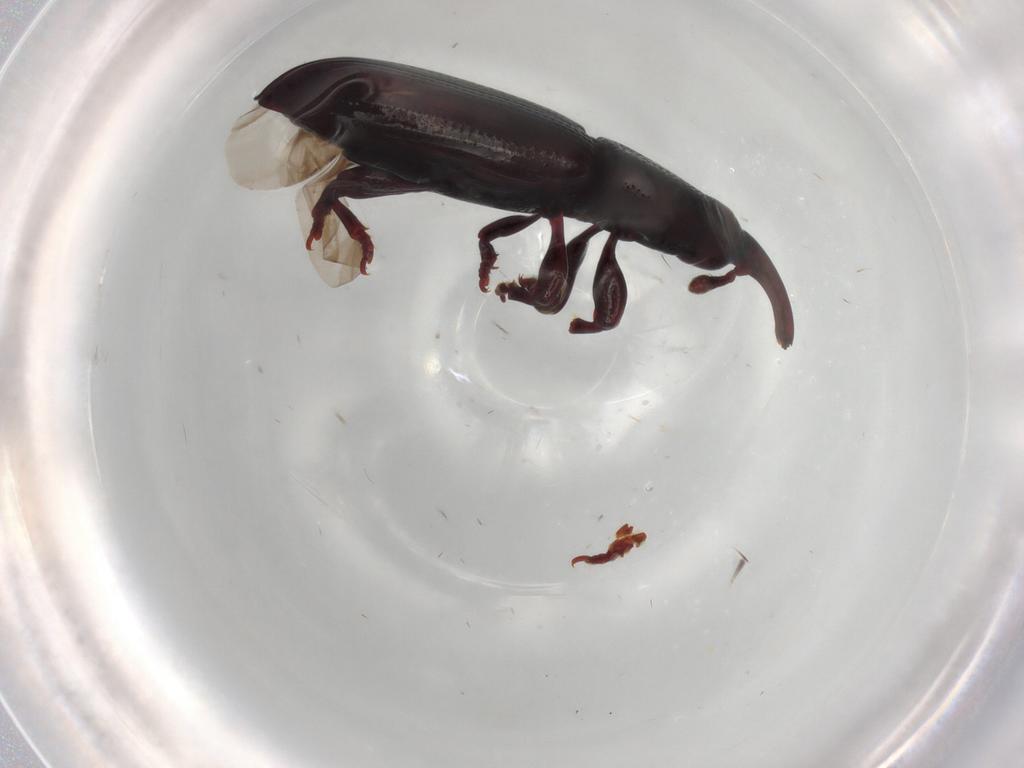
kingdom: Animalia
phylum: Arthropoda
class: Insecta
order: Coleoptera
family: Curculionidae
